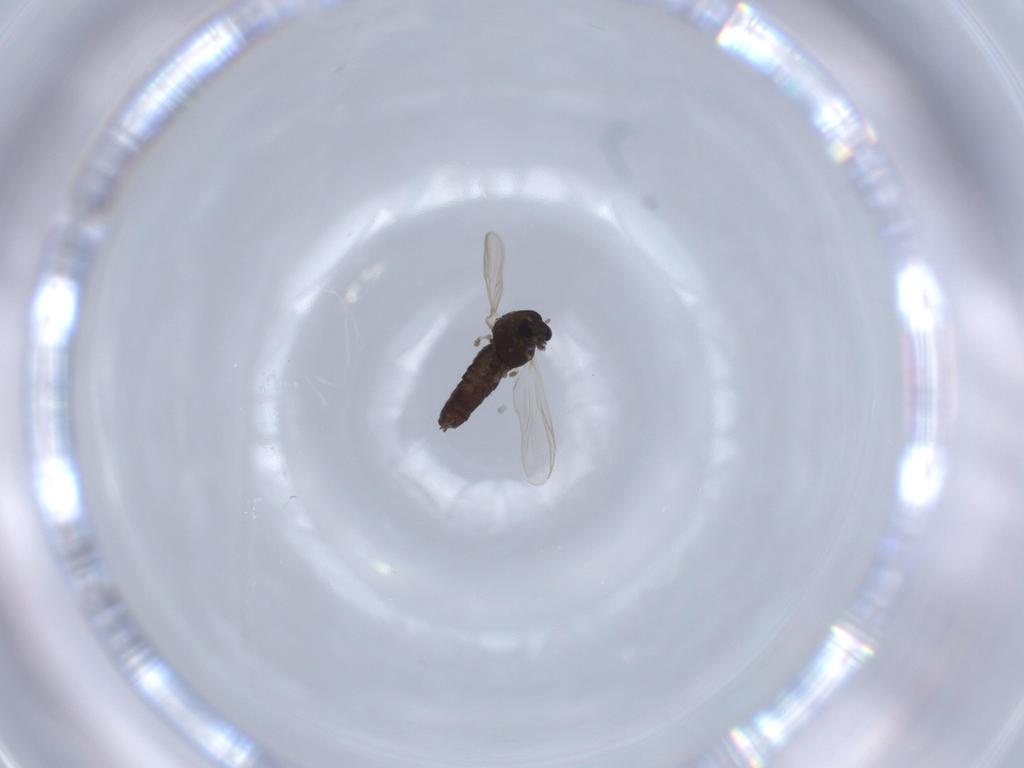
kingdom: Animalia
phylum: Arthropoda
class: Insecta
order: Diptera
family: Chironomidae
